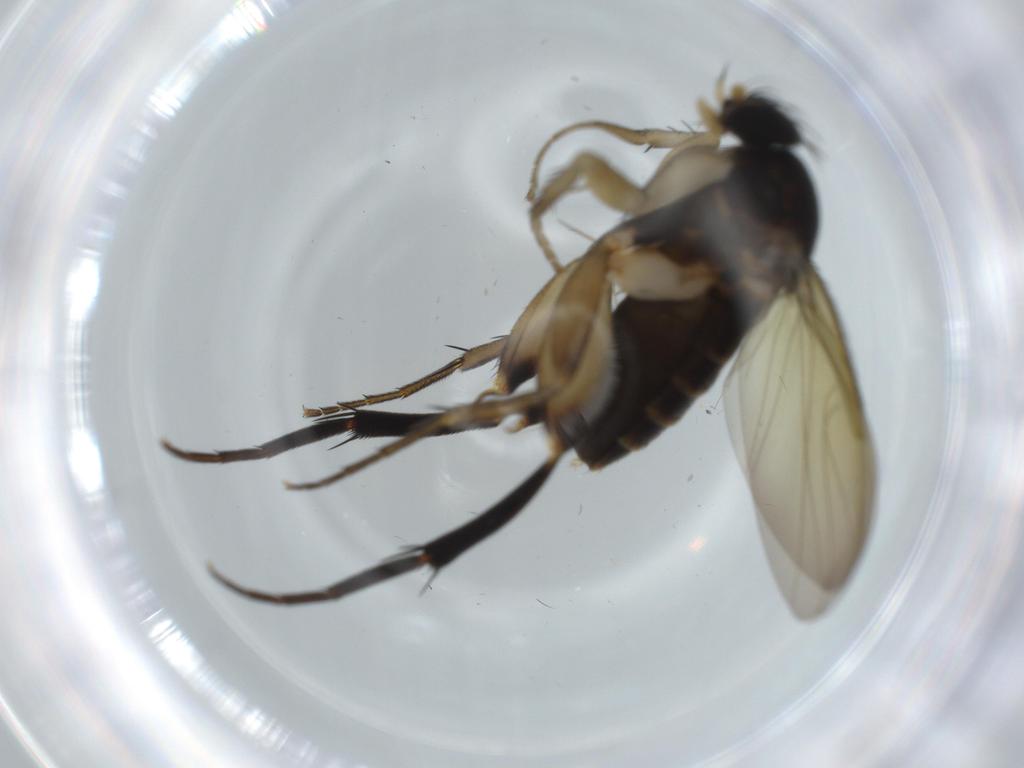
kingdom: Animalia
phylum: Arthropoda
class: Insecta
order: Diptera
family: Phoridae
